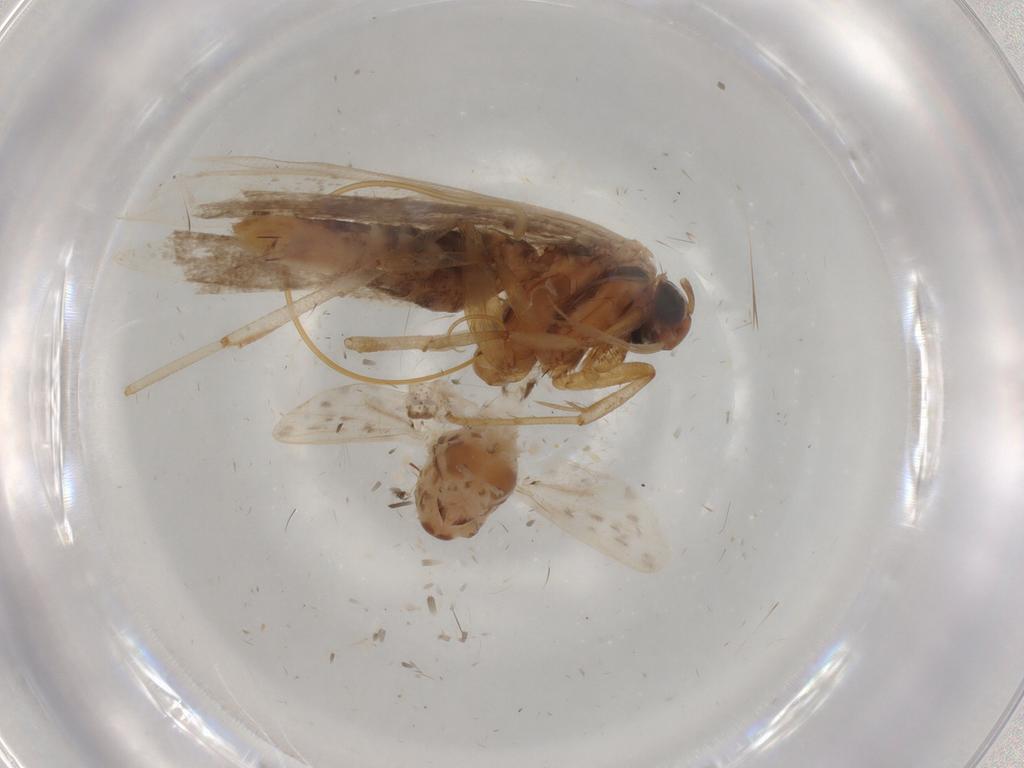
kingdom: Animalia
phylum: Arthropoda
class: Insecta
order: Lepidoptera
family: Gelechiidae
